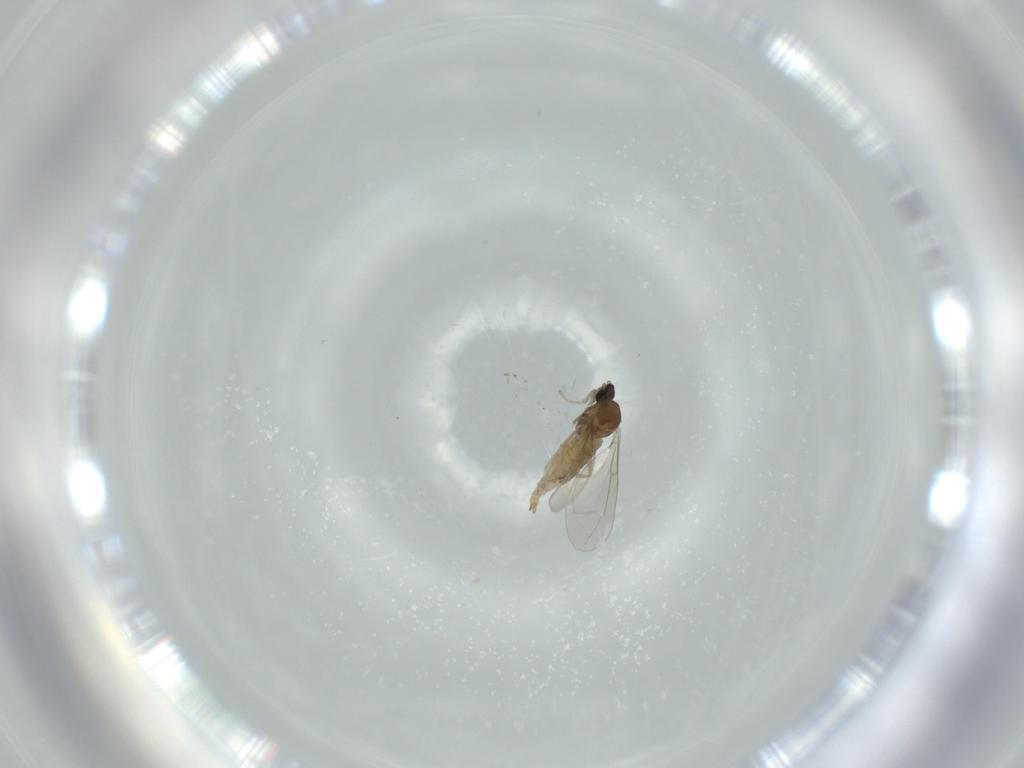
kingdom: Animalia
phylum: Arthropoda
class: Insecta
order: Diptera
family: Cecidomyiidae
